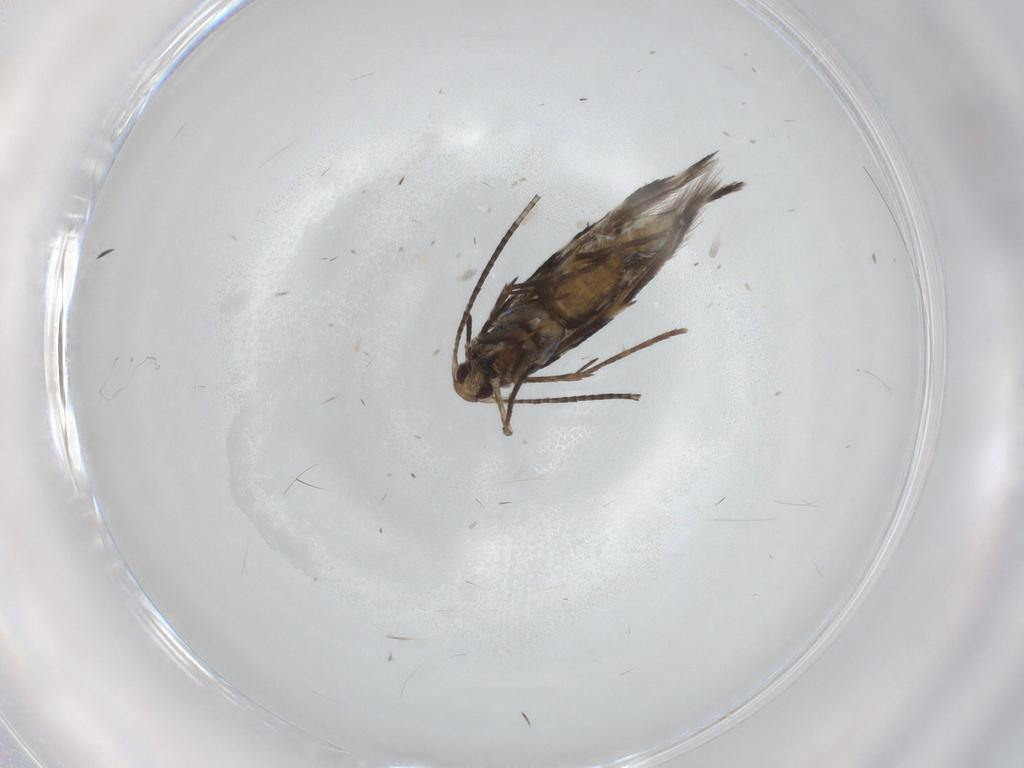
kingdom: Animalia
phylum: Arthropoda
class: Insecta
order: Lepidoptera
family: Erebidae
